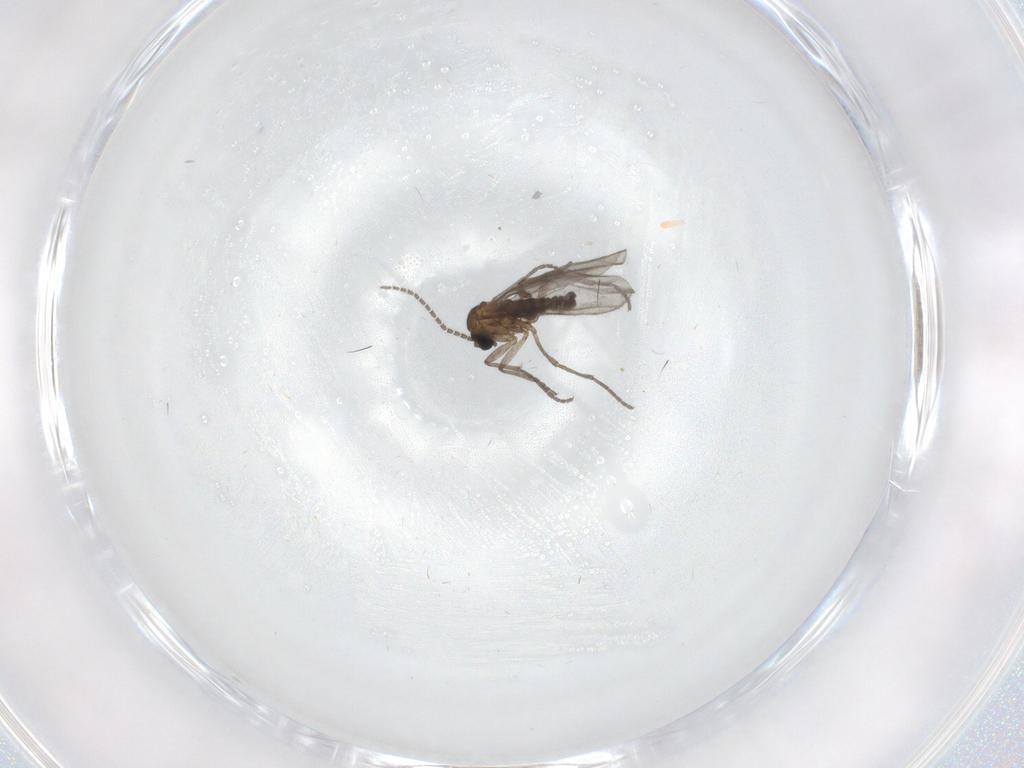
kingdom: Animalia
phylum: Arthropoda
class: Insecta
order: Diptera
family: Sciaridae
